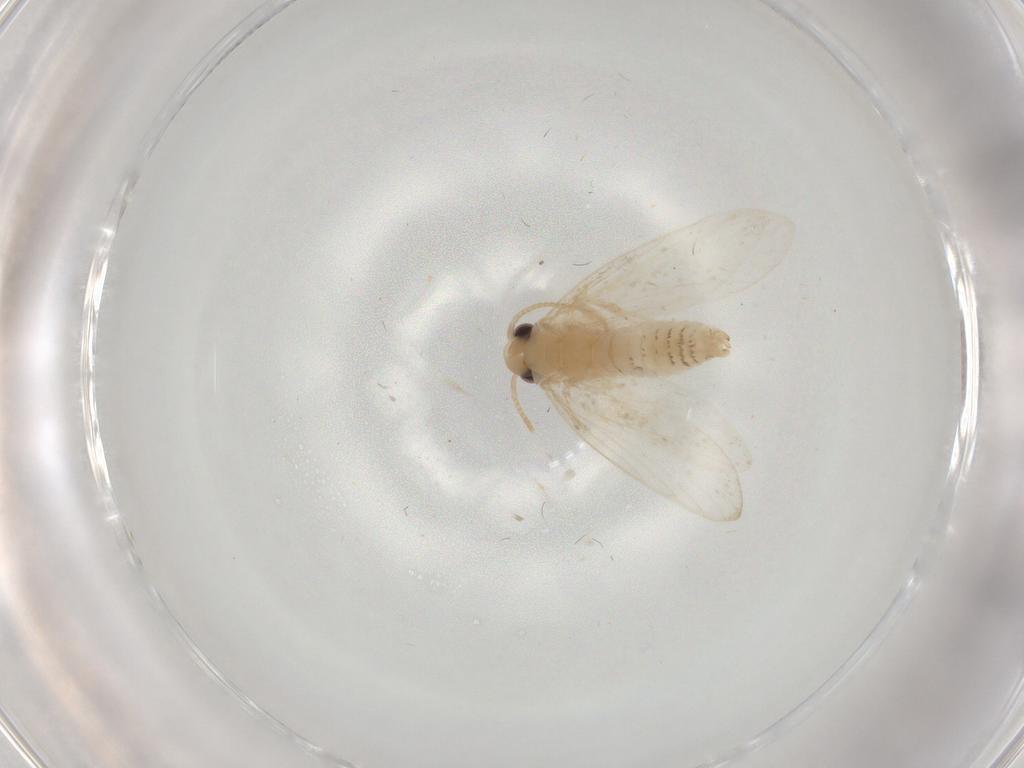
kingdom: Animalia
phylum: Arthropoda
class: Insecta
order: Lepidoptera
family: Psychidae
